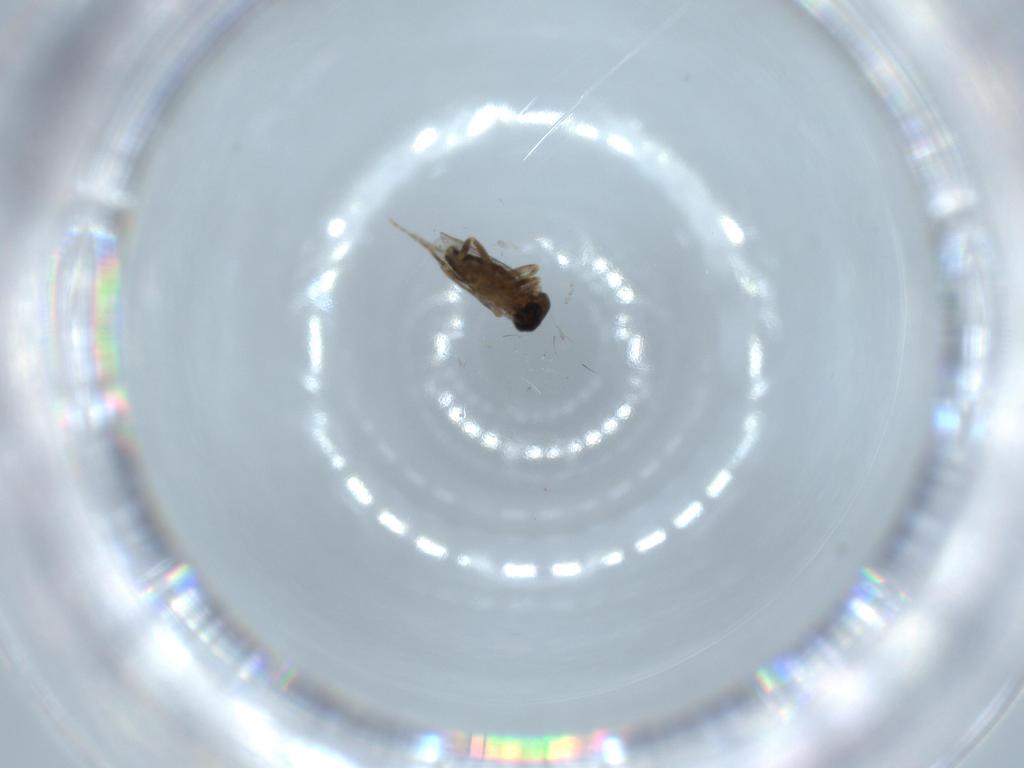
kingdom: Animalia
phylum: Arthropoda
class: Insecta
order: Diptera
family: Ceratopogonidae
